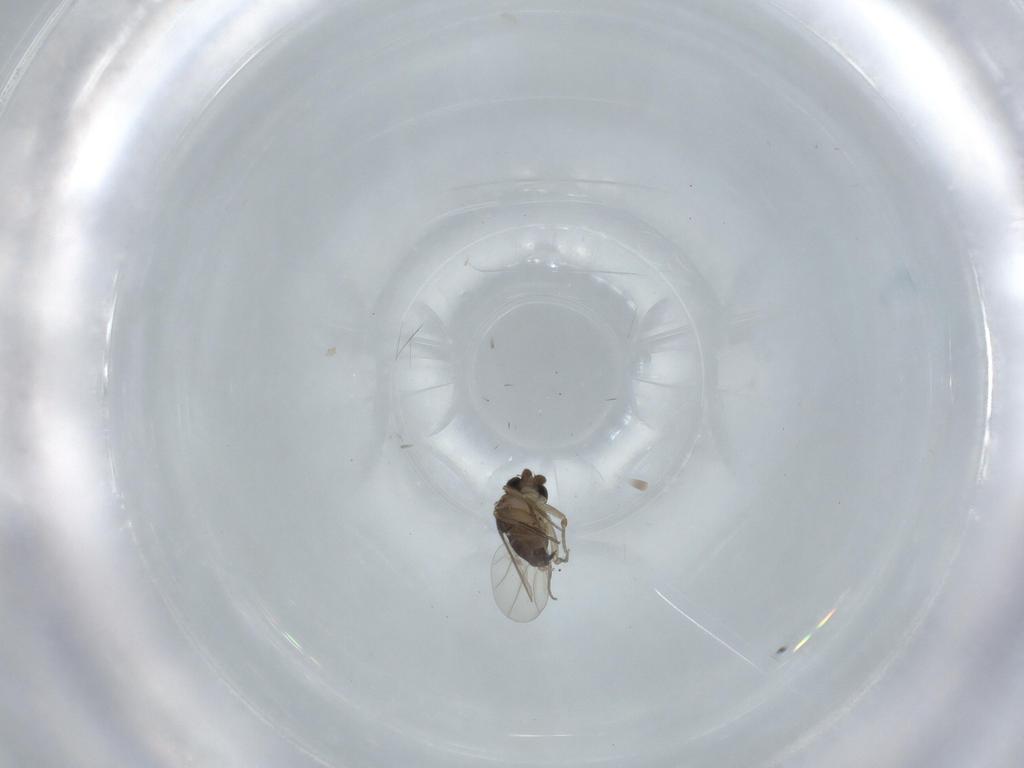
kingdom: Animalia
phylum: Arthropoda
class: Insecta
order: Diptera
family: Phoridae
